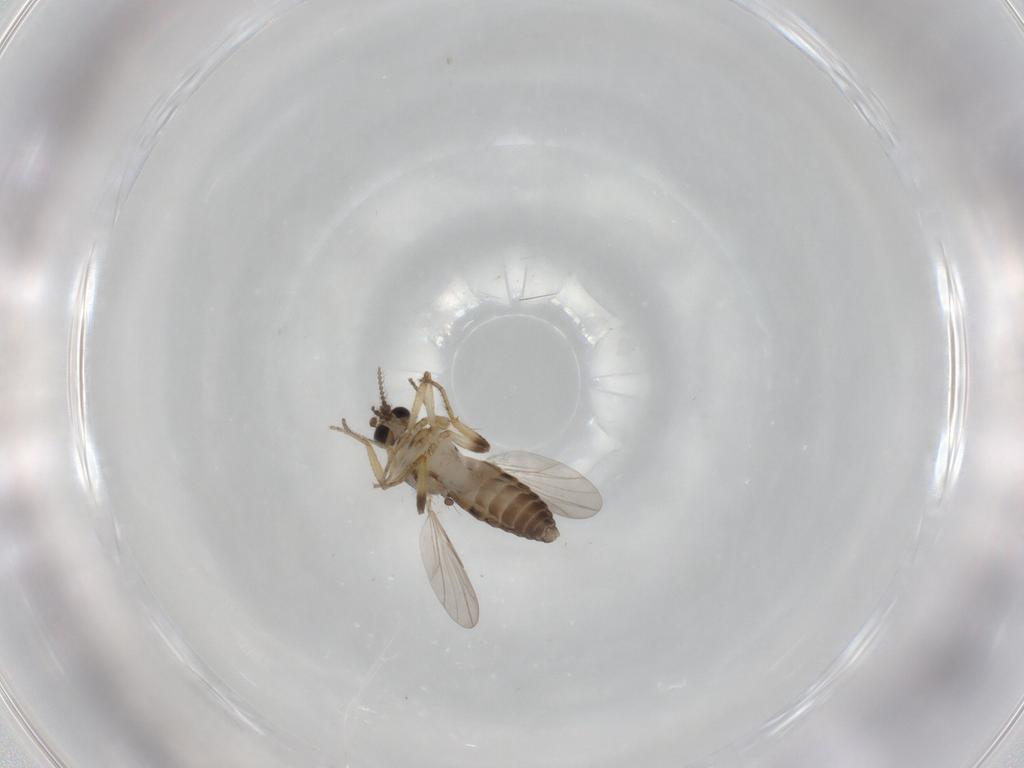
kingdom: Animalia
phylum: Arthropoda
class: Insecta
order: Diptera
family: Ceratopogonidae
